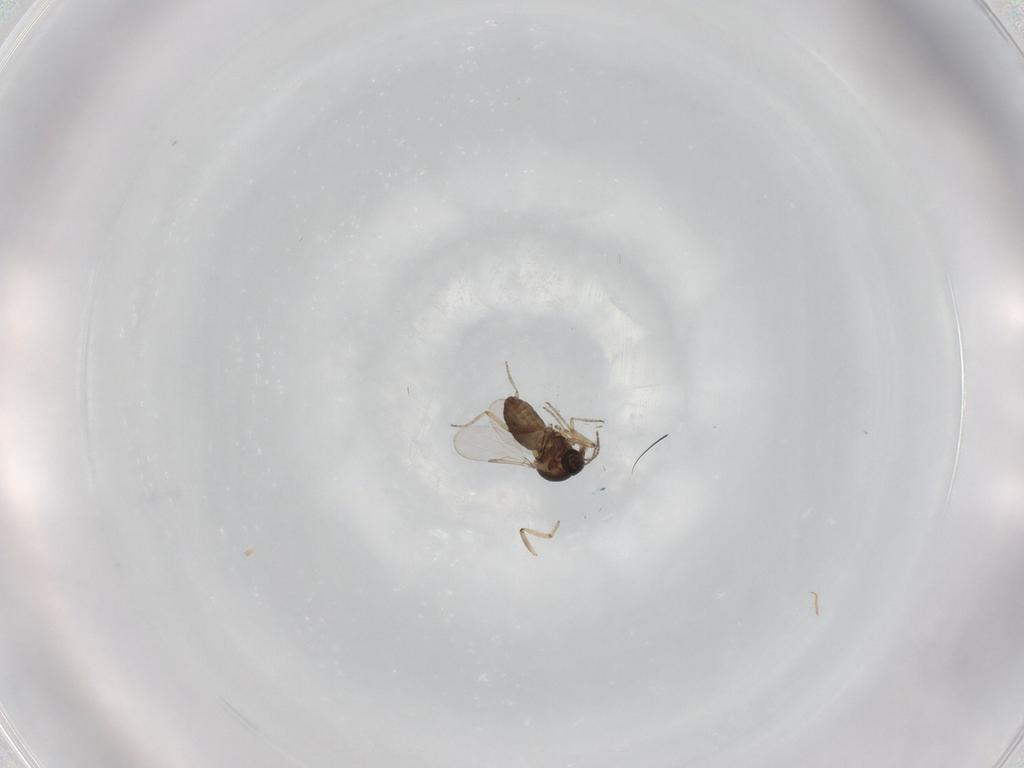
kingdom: Animalia
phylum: Arthropoda
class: Insecta
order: Diptera
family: Ceratopogonidae
